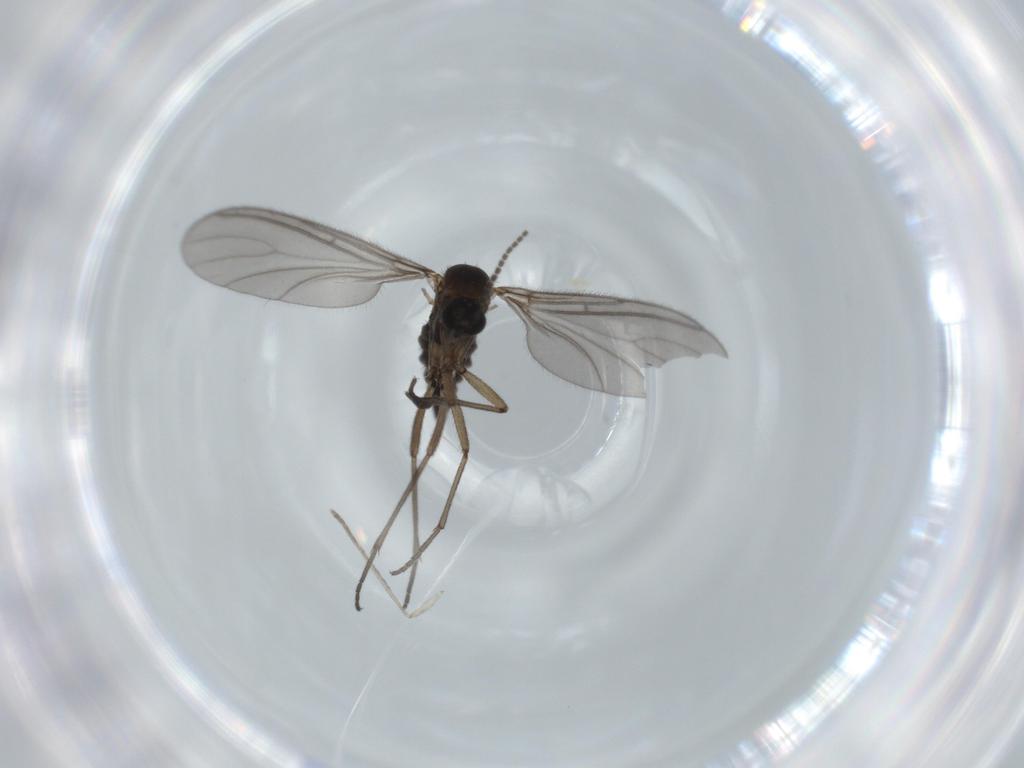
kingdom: Animalia
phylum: Arthropoda
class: Insecta
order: Diptera
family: Sciaridae
